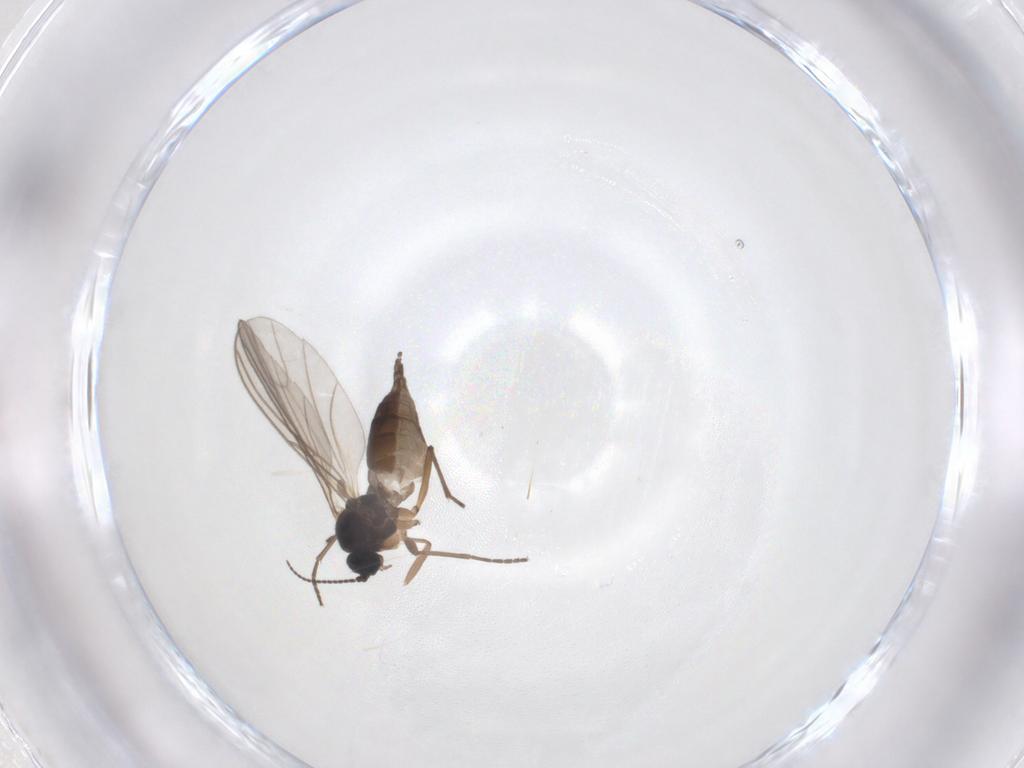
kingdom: Animalia
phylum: Arthropoda
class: Insecta
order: Diptera
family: Sciaridae
